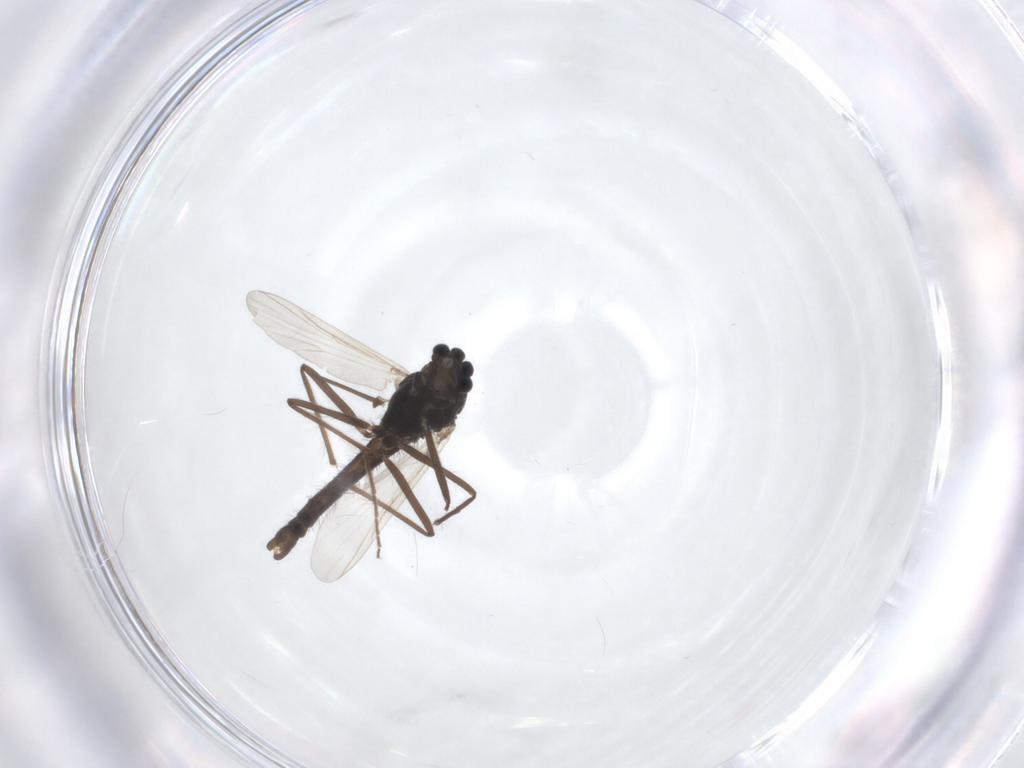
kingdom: Animalia
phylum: Arthropoda
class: Insecta
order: Diptera
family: Chironomidae
